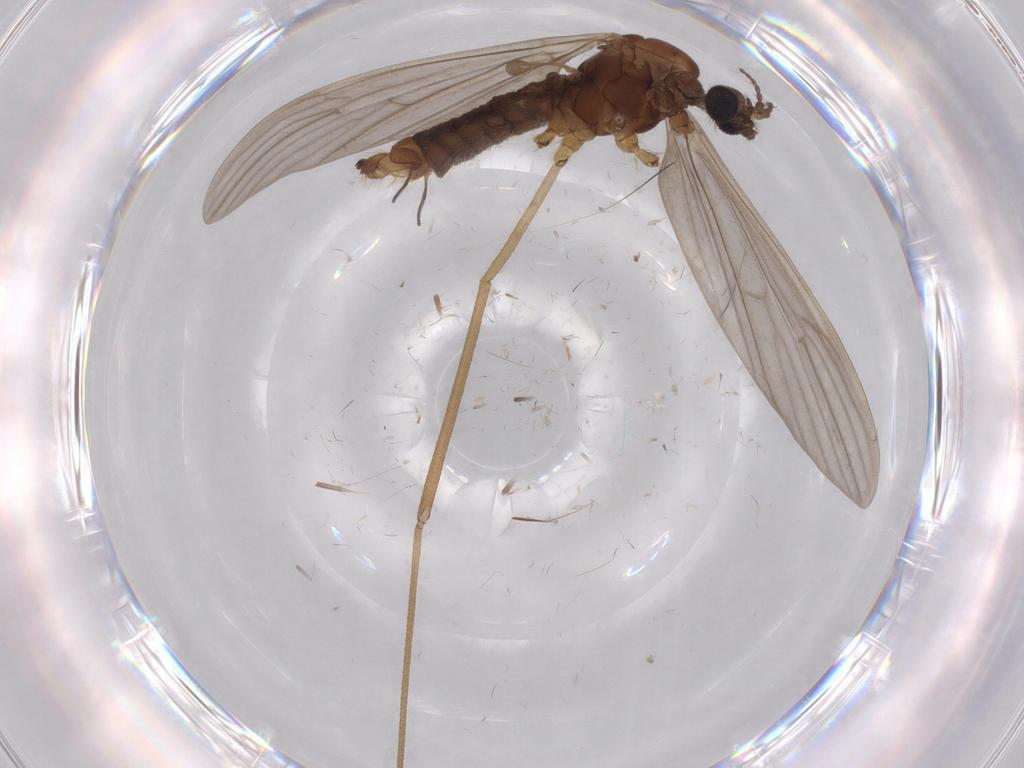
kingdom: Animalia
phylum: Arthropoda
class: Insecta
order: Diptera
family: Chironomidae
